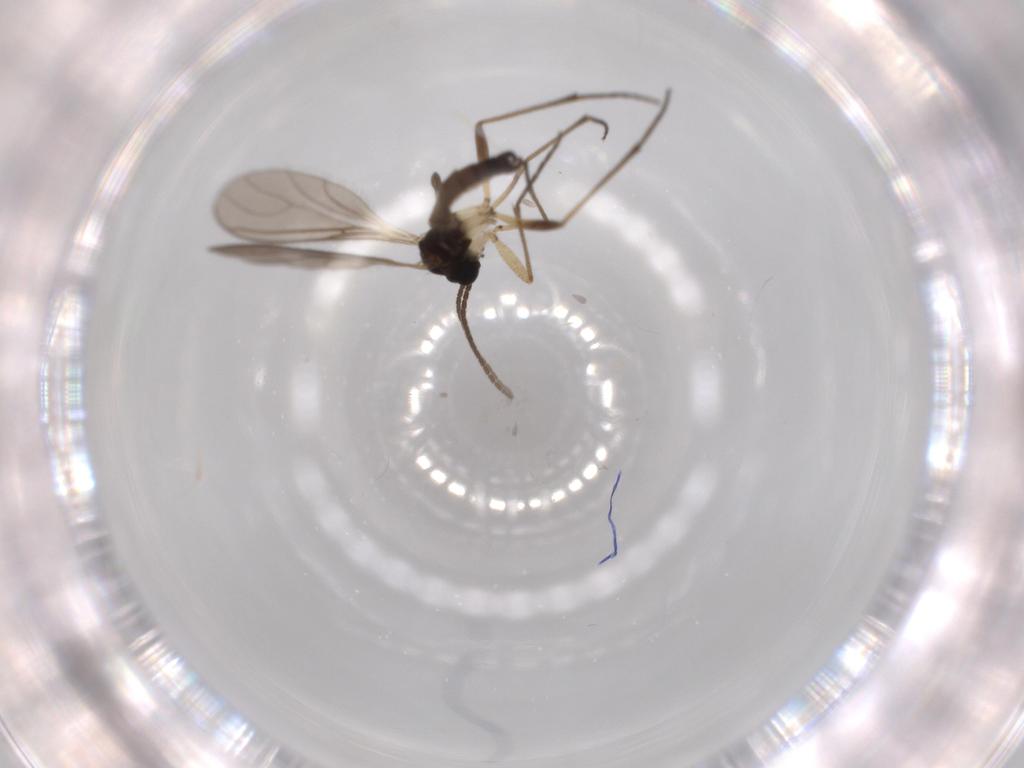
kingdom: Animalia
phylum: Arthropoda
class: Insecta
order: Diptera
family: Sciaridae
